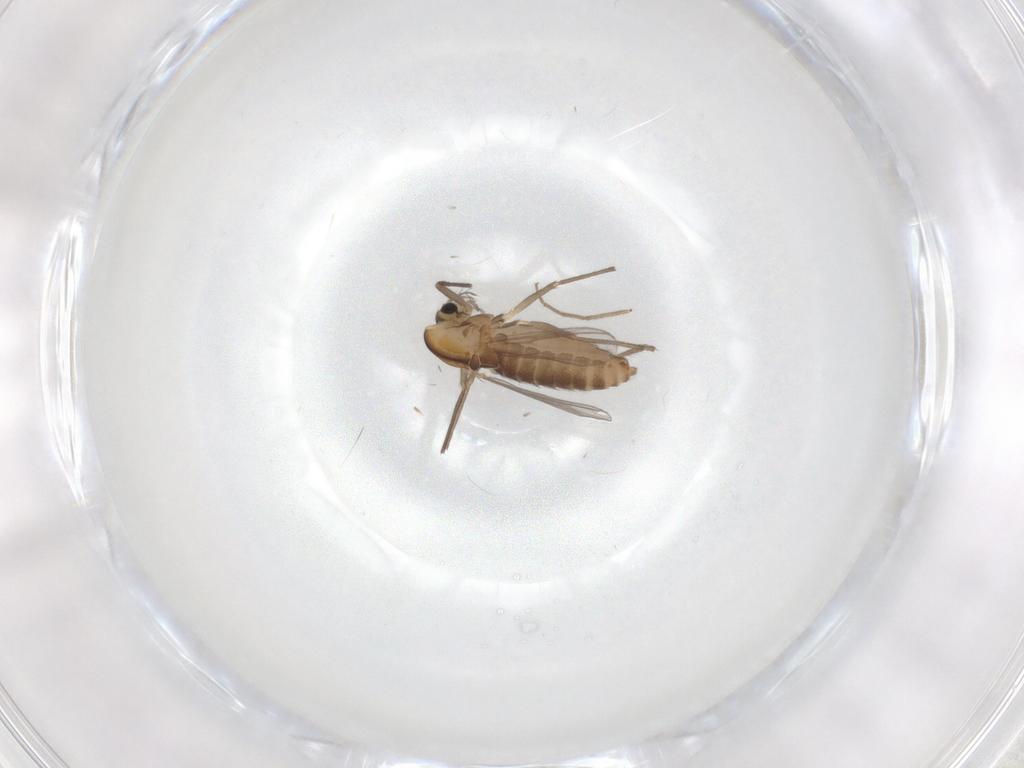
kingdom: Animalia
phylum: Arthropoda
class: Insecta
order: Diptera
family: Chironomidae
